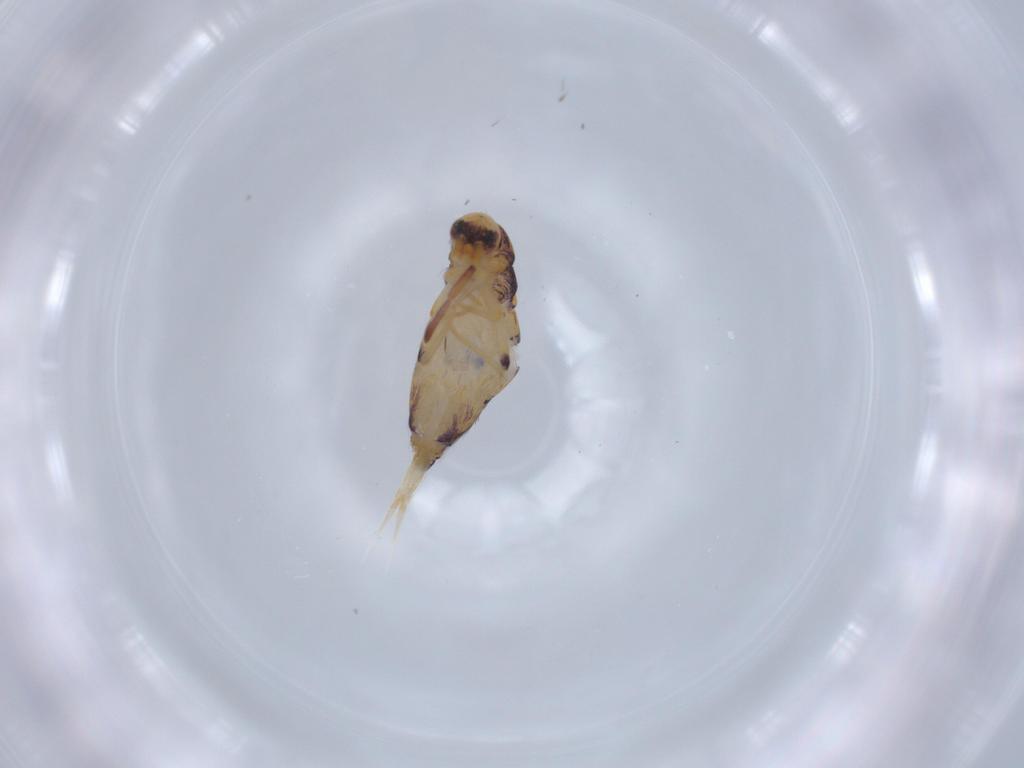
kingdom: Animalia
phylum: Arthropoda
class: Collembola
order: Entomobryomorpha
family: Entomobryidae
